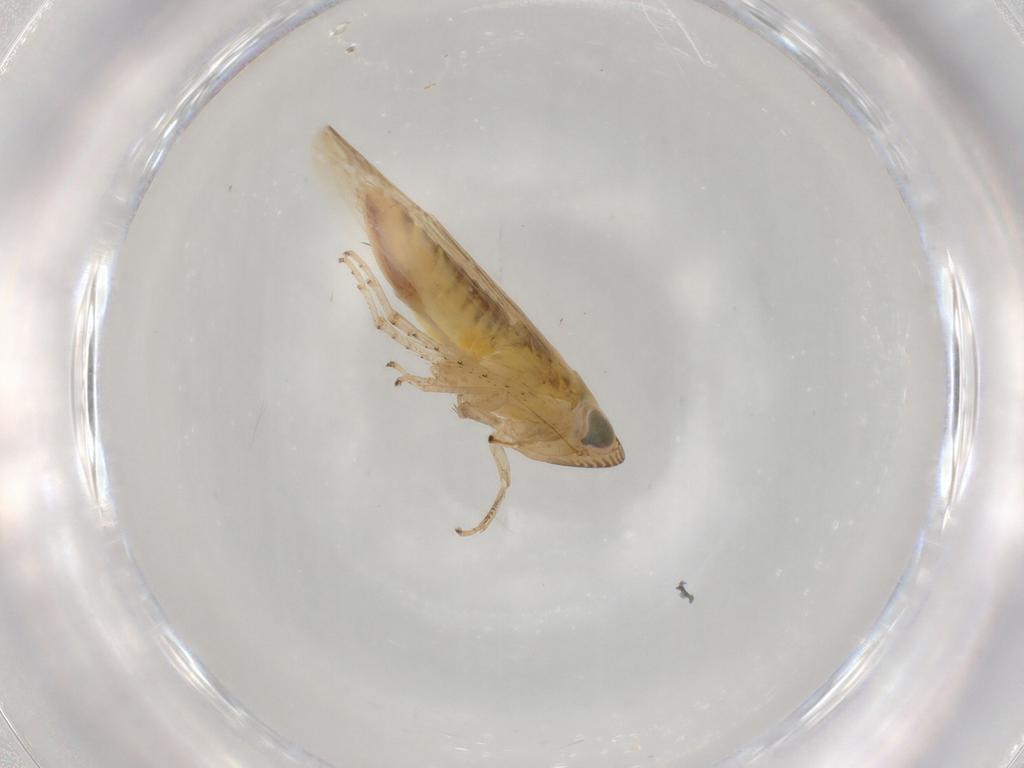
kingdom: Animalia
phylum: Arthropoda
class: Insecta
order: Hemiptera
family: Cicadellidae
